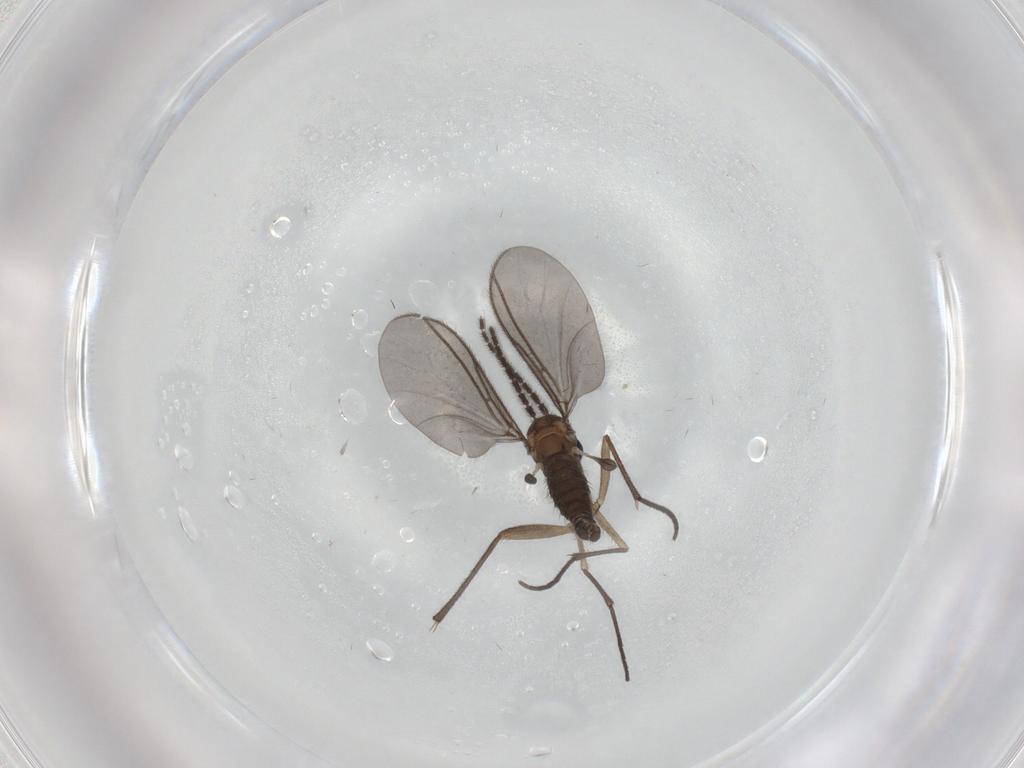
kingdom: Animalia
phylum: Arthropoda
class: Insecta
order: Diptera
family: Sciaridae
